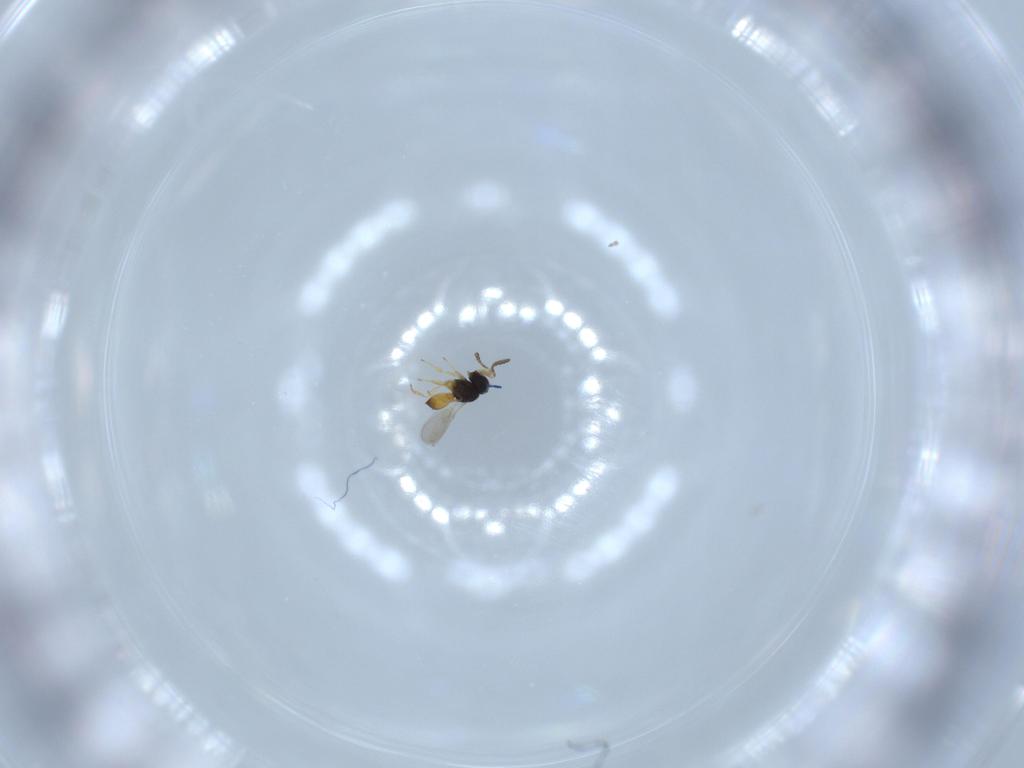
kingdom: Animalia
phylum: Arthropoda
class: Insecta
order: Hymenoptera
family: Scelionidae
